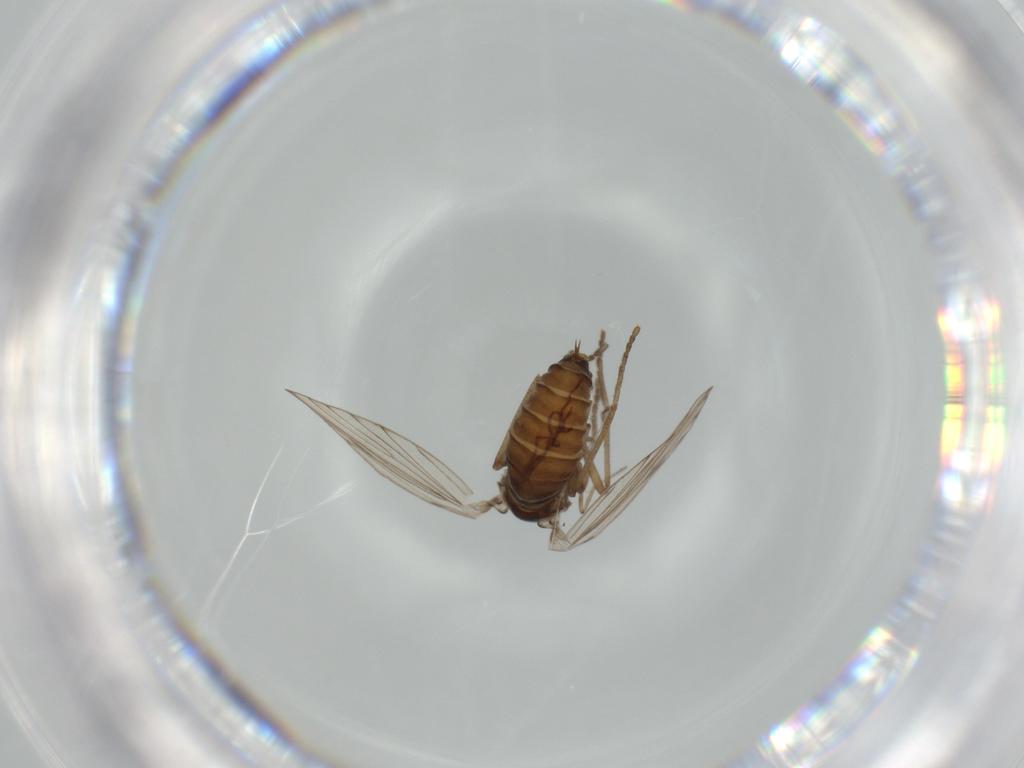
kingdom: Animalia
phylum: Arthropoda
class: Insecta
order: Diptera
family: Psychodidae
